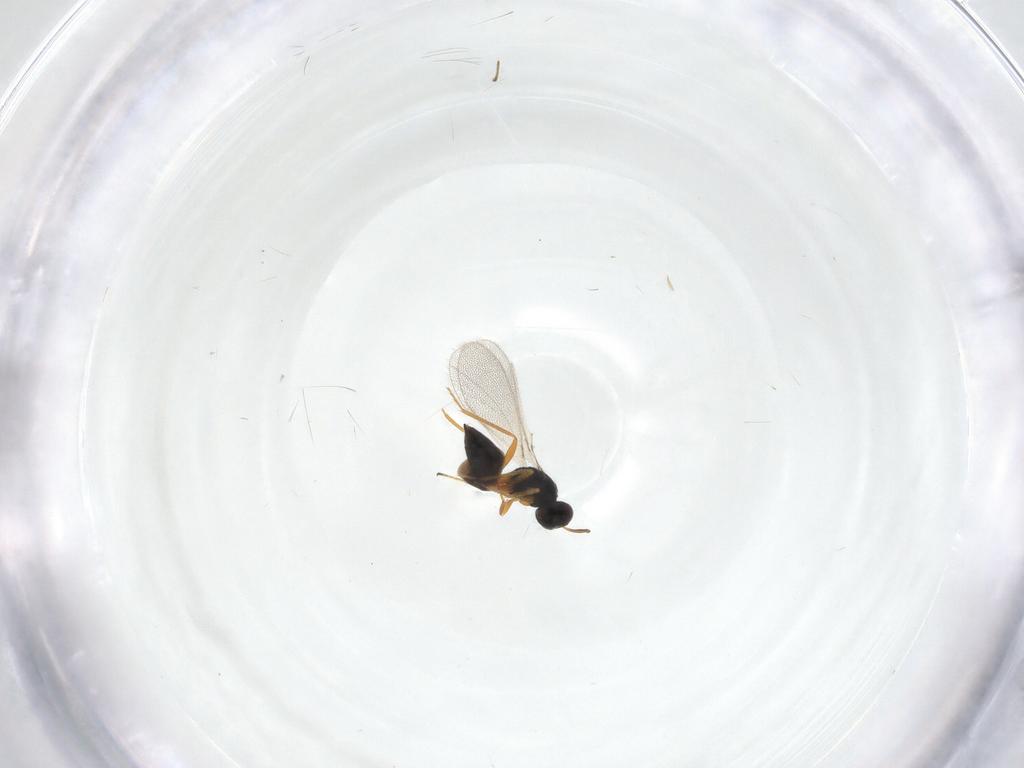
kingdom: Animalia
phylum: Arthropoda
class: Insecta
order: Hymenoptera
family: Mymaridae
